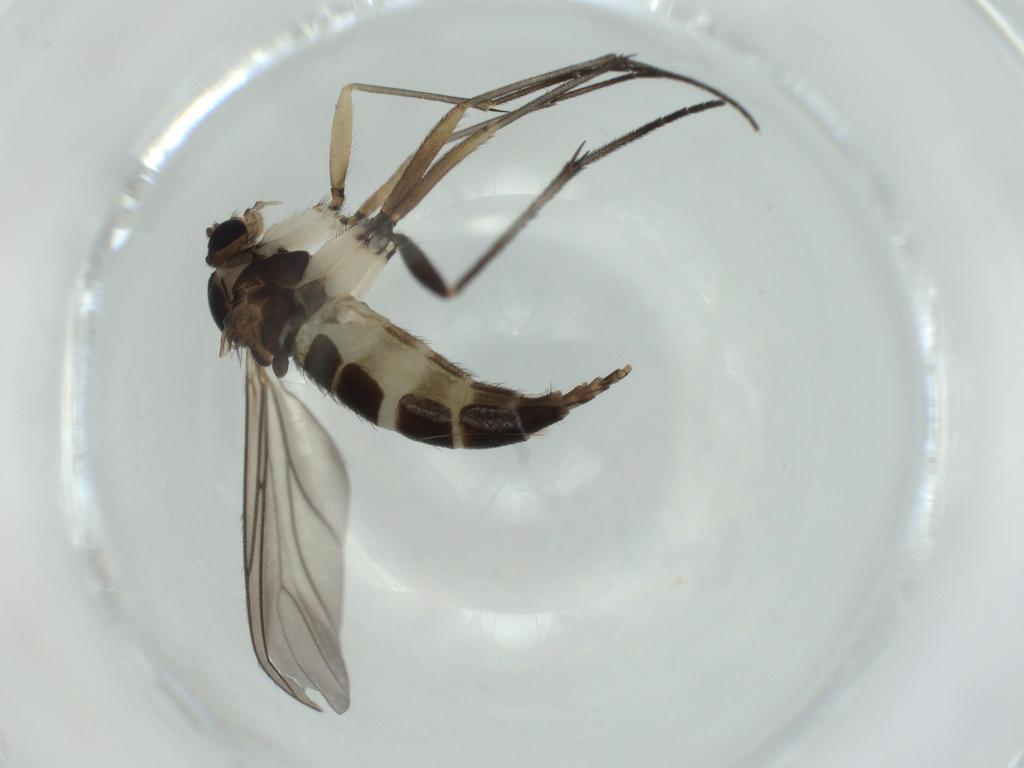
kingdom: Animalia
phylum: Arthropoda
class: Insecta
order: Diptera
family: Sciaridae
